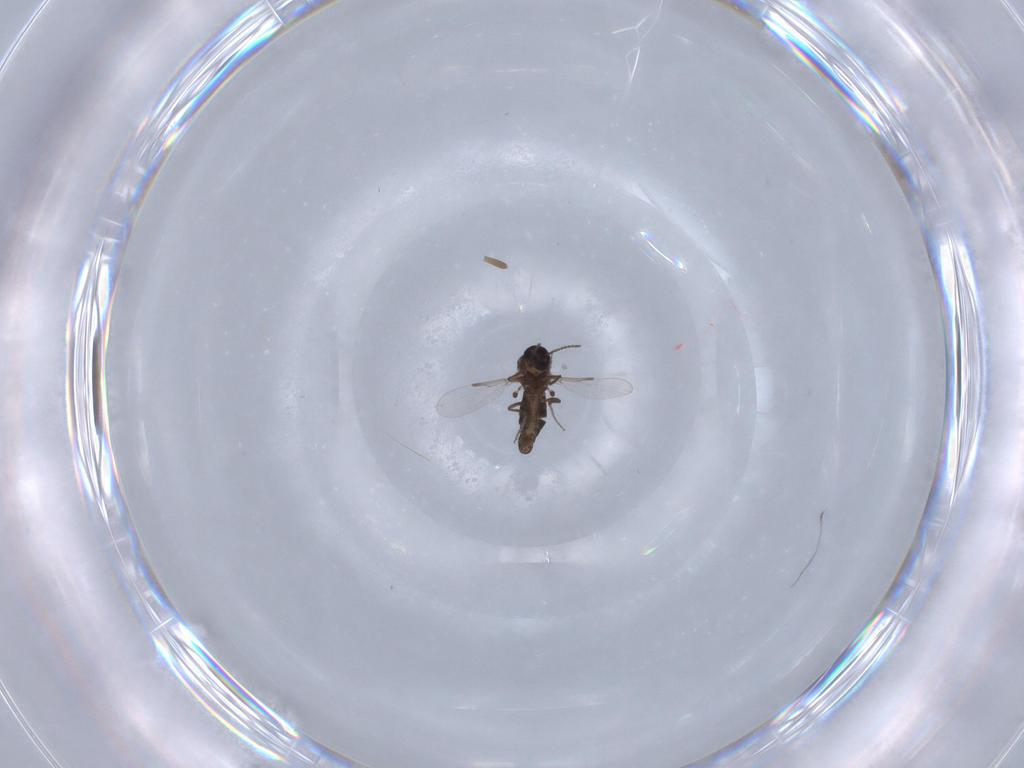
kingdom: Animalia
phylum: Arthropoda
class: Insecta
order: Diptera
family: Ceratopogonidae
